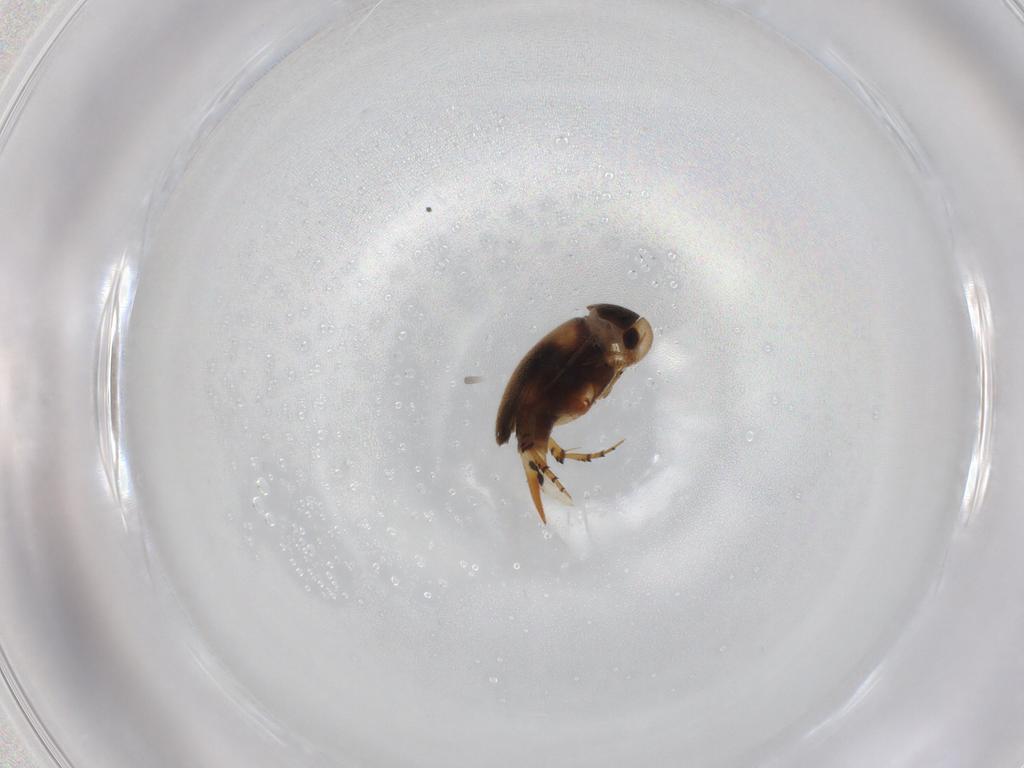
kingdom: Animalia
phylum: Arthropoda
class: Insecta
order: Coleoptera
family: Mordellidae
